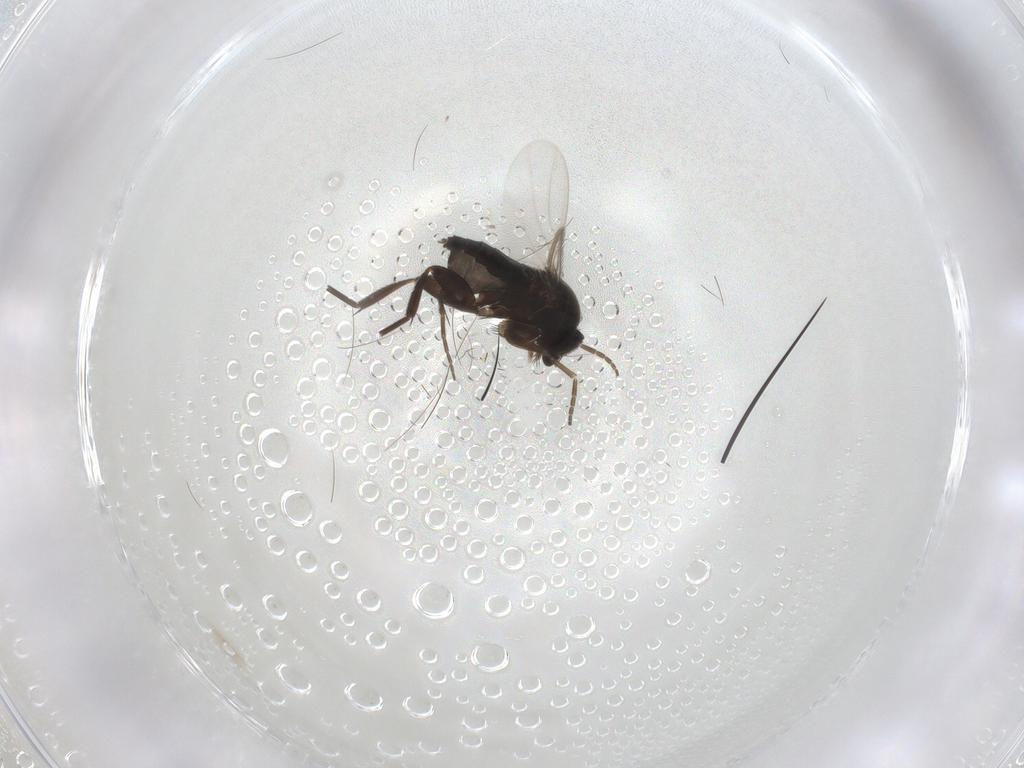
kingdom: Animalia
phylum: Arthropoda
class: Insecta
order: Diptera
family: Phoridae
